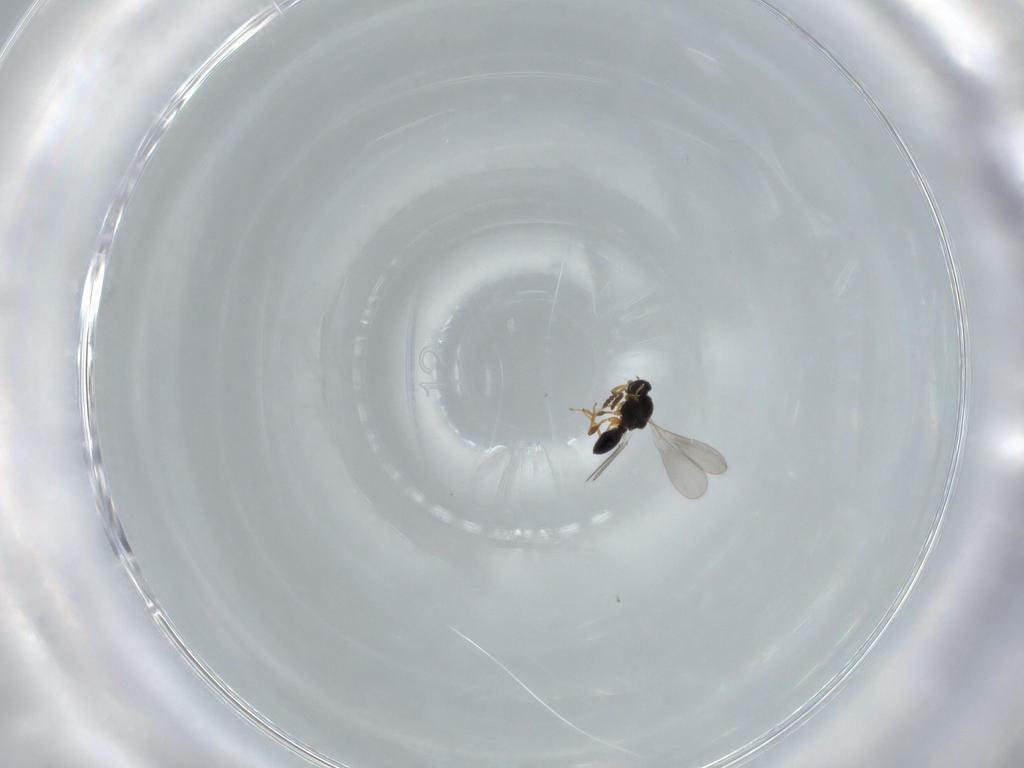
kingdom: Animalia
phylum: Arthropoda
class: Insecta
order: Hymenoptera
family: Platygastridae
